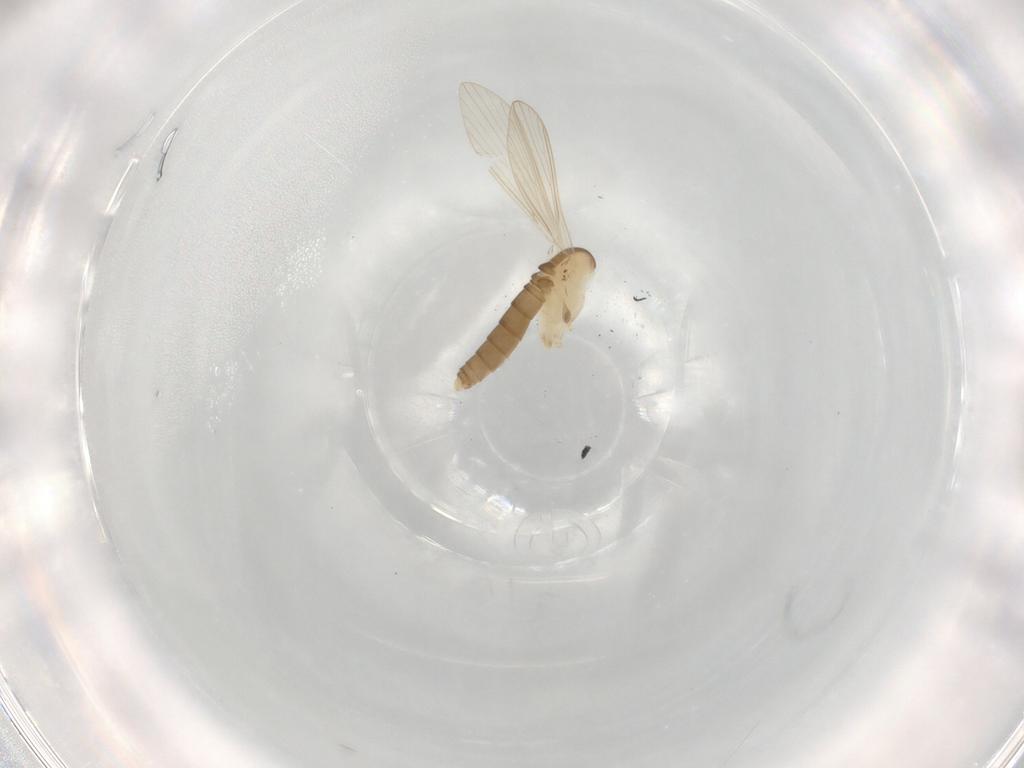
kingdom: Animalia
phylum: Arthropoda
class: Insecta
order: Diptera
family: Psychodidae
